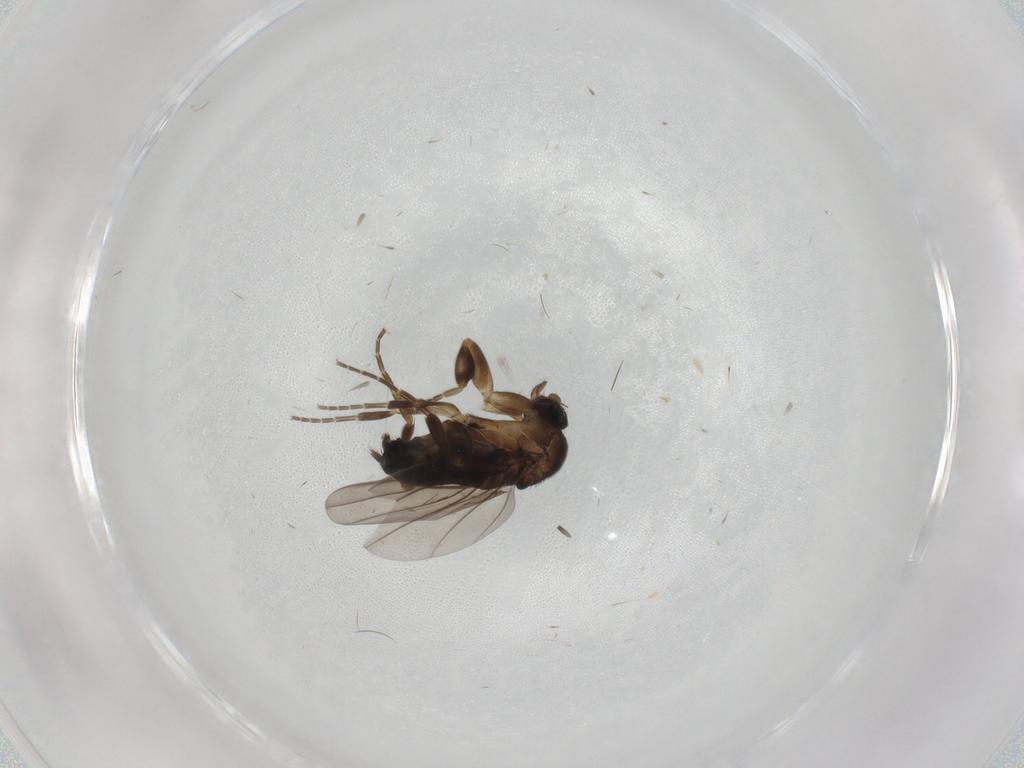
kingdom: Animalia
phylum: Arthropoda
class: Insecta
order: Diptera
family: Phoridae
